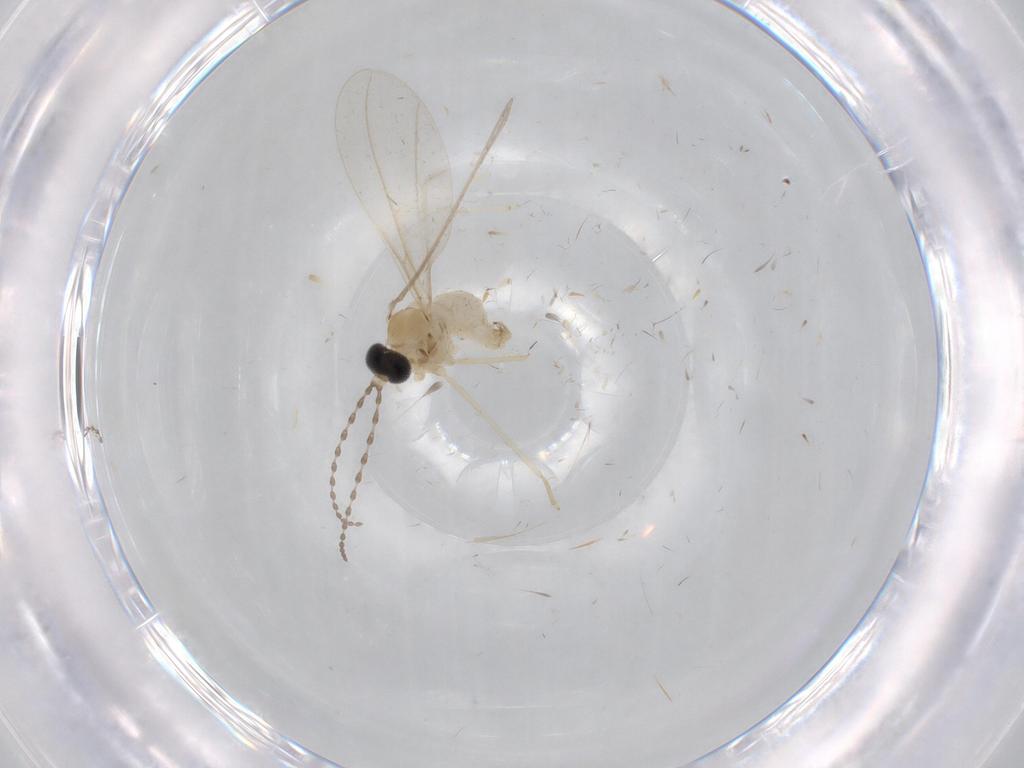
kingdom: Animalia
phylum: Arthropoda
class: Insecta
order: Diptera
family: Cecidomyiidae
